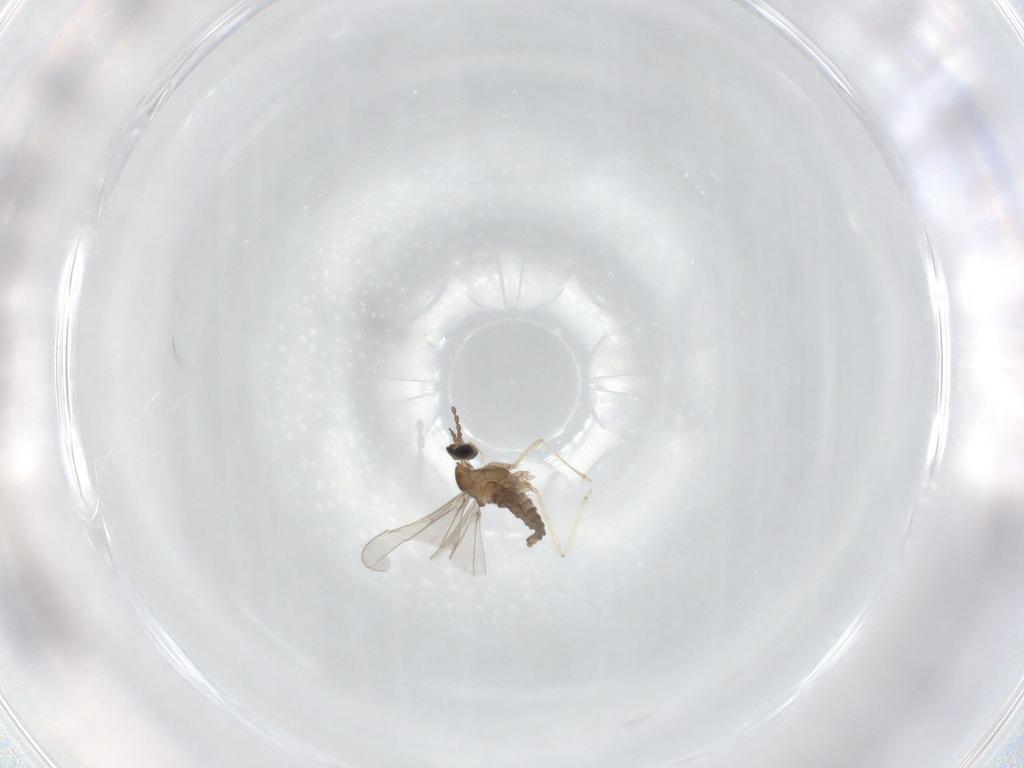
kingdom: Animalia
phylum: Arthropoda
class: Insecta
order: Diptera
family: Cecidomyiidae
